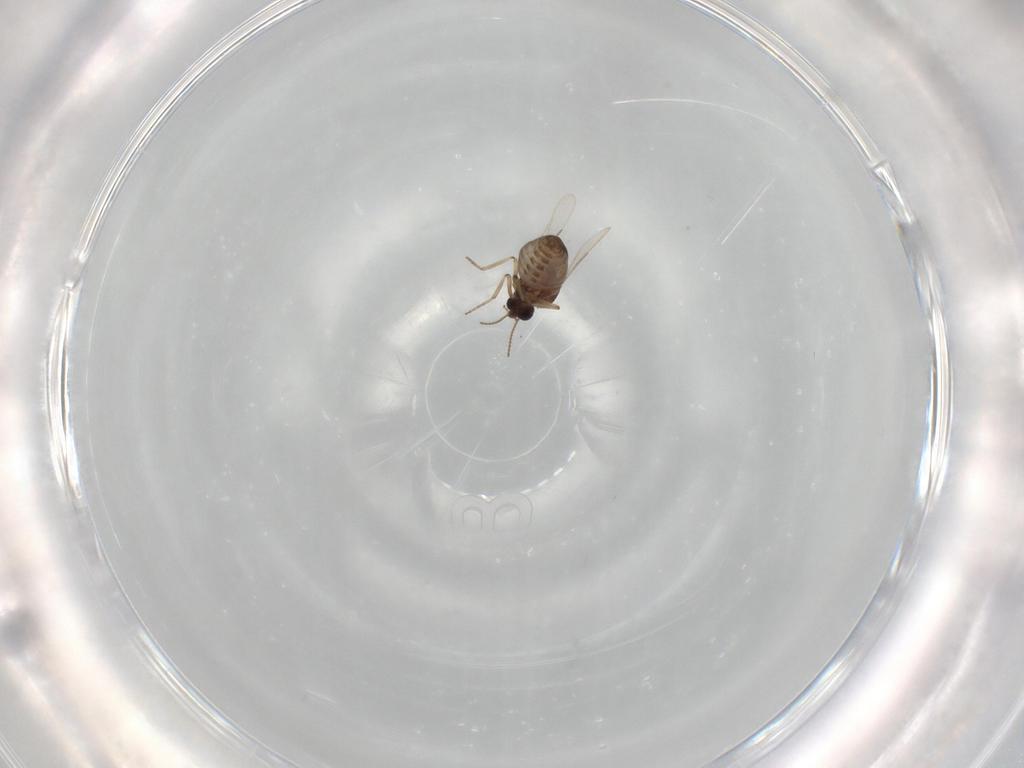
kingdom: Animalia
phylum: Arthropoda
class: Insecta
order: Diptera
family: Ceratopogonidae
